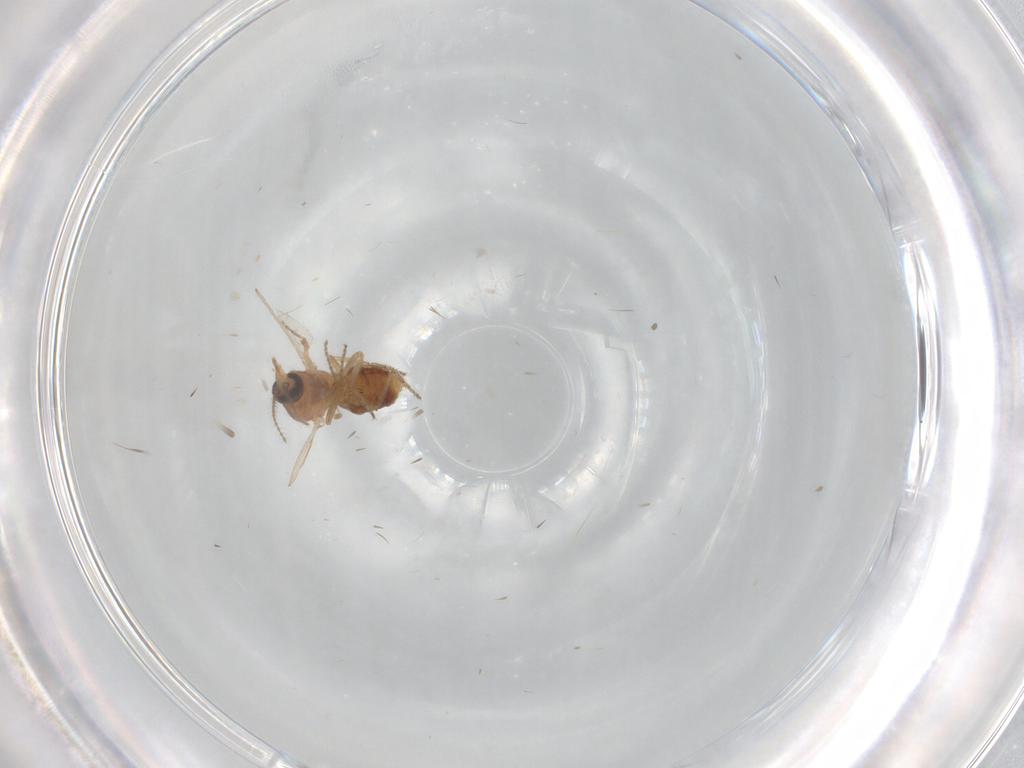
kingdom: Animalia
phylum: Arthropoda
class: Insecta
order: Diptera
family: Ceratopogonidae
